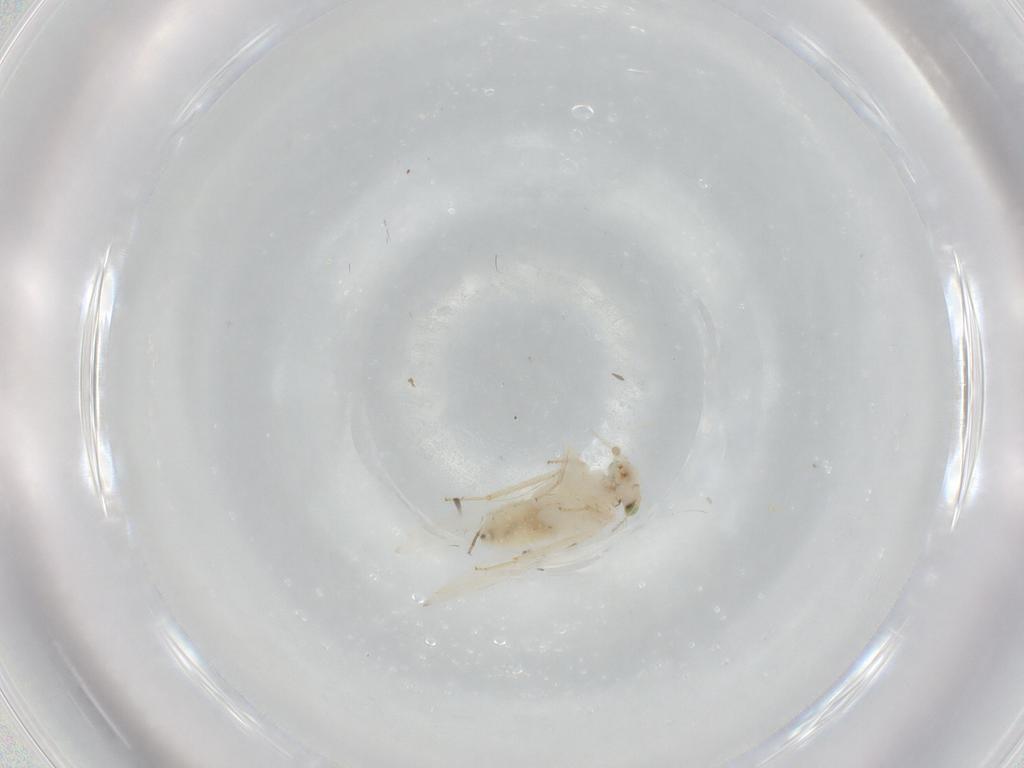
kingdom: Animalia
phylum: Arthropoda
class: Insecta
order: Psocodea
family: Lepidopsocidae
